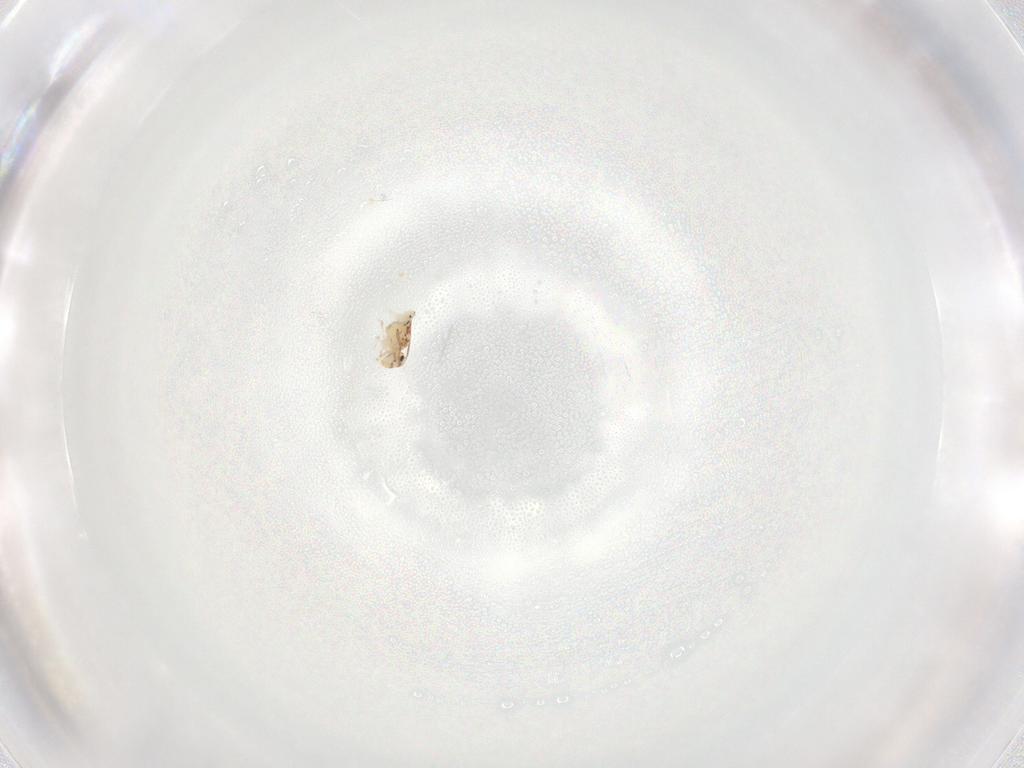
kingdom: Animalia
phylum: Arthropoda
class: Collembola
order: Symphypleona
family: Bourletiellidae
